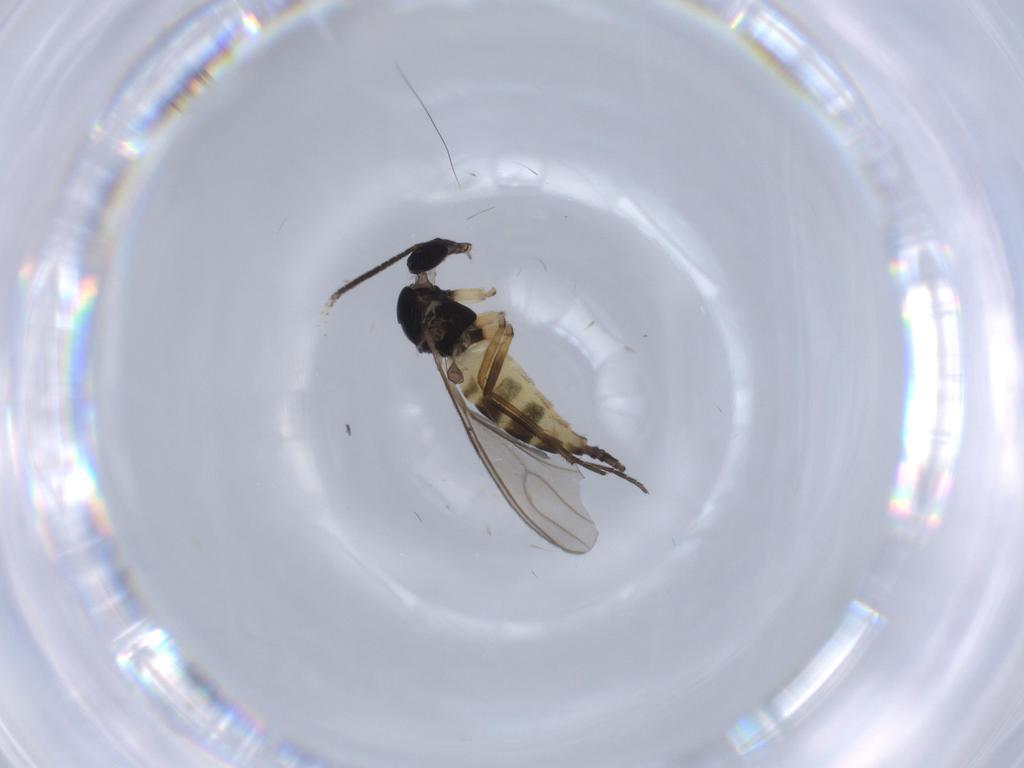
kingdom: Animalia
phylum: Arthropoda
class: Insecta
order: Diptera
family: Sciaridae
